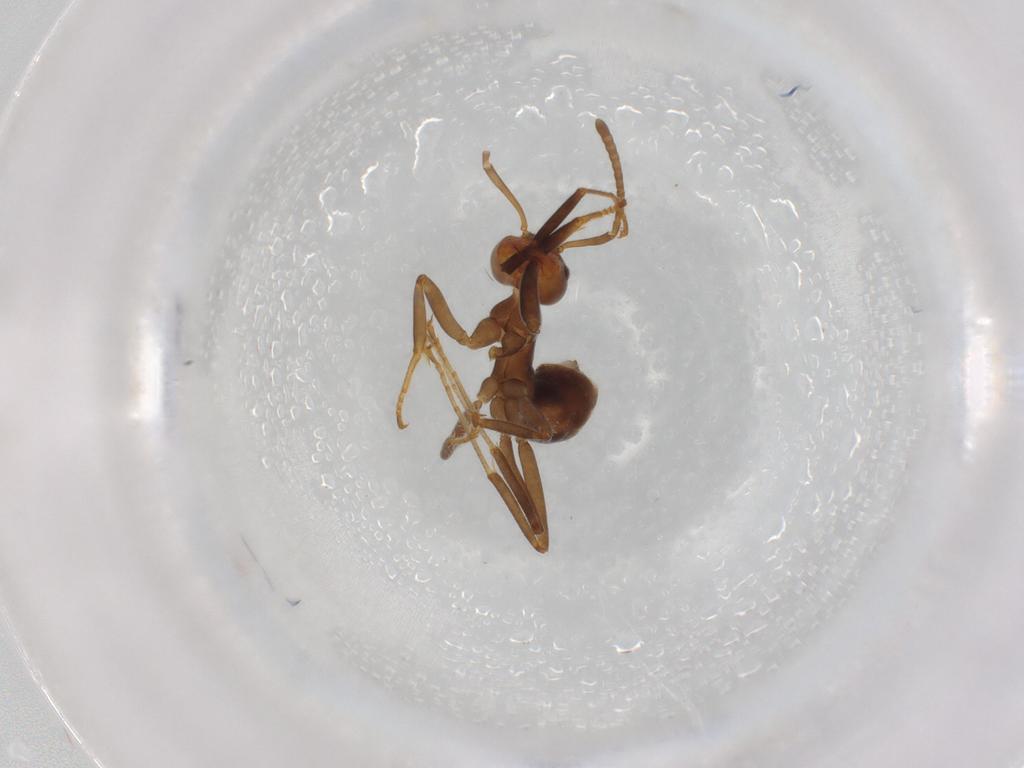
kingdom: Animalia
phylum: Arthropoda
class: Insecta
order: Hymenoptera
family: Formicidae
